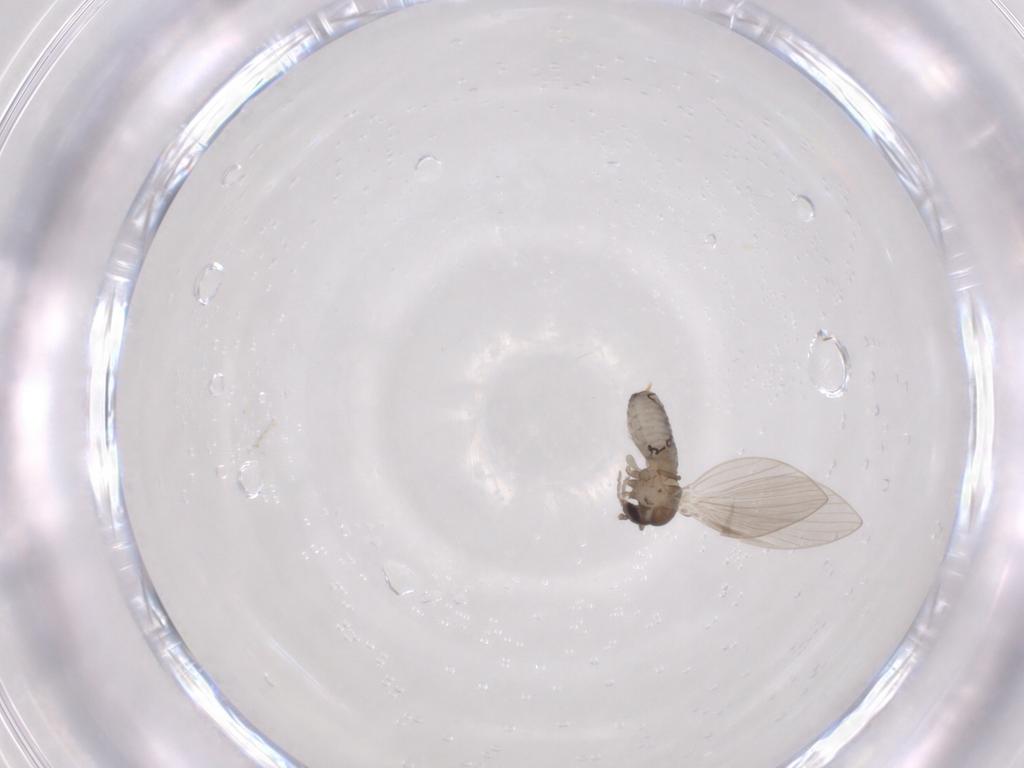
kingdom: Animalia
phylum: Arthropoda
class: Insecta
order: Diptera
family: Psychodidae
